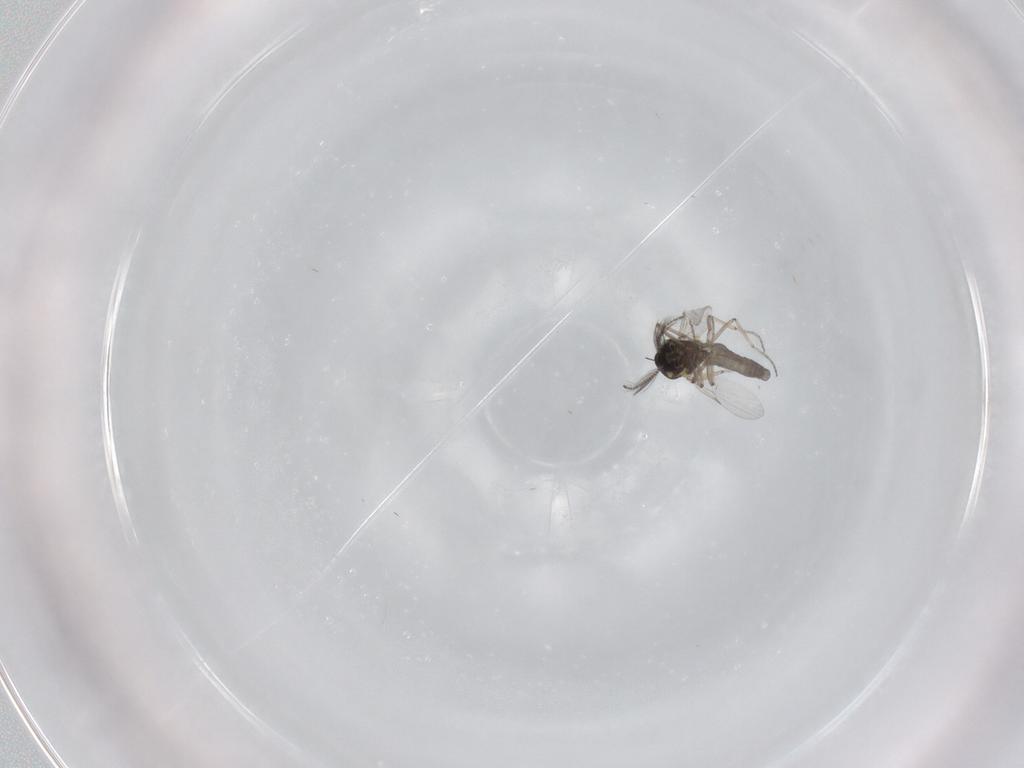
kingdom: Animalia
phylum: Arthropoda
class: Insecta
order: Diptera
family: Ceratopogonidae
